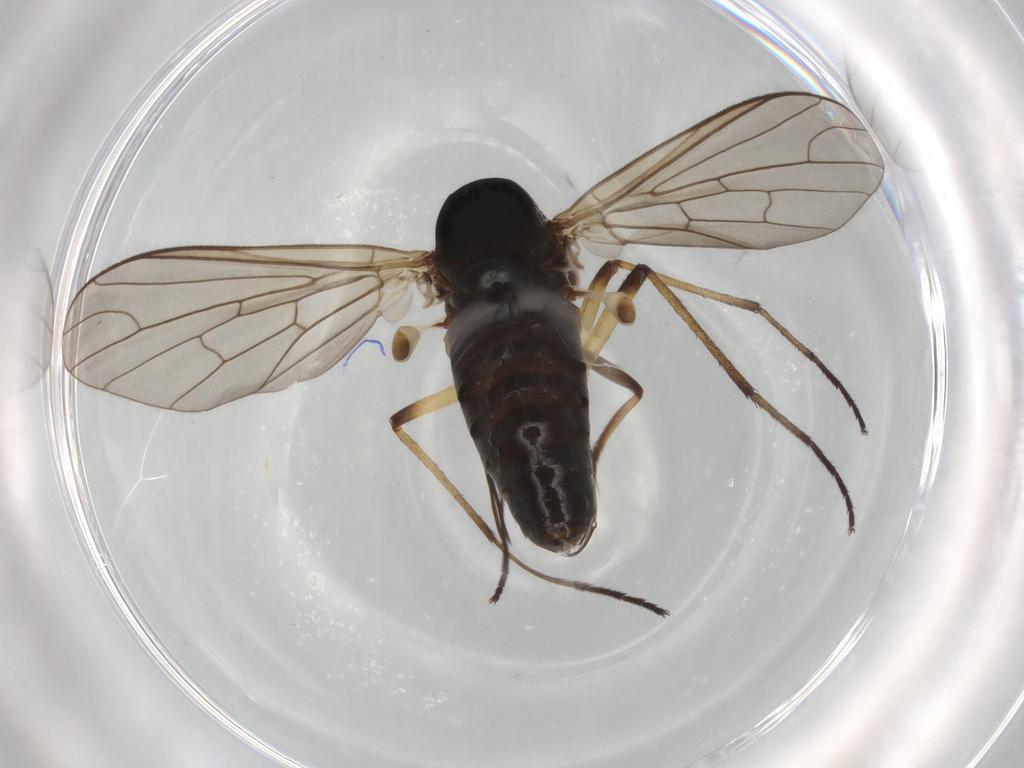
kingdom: Animalia
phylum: Arthropoda
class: Insecta
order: Diptera
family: Bombyliidae
